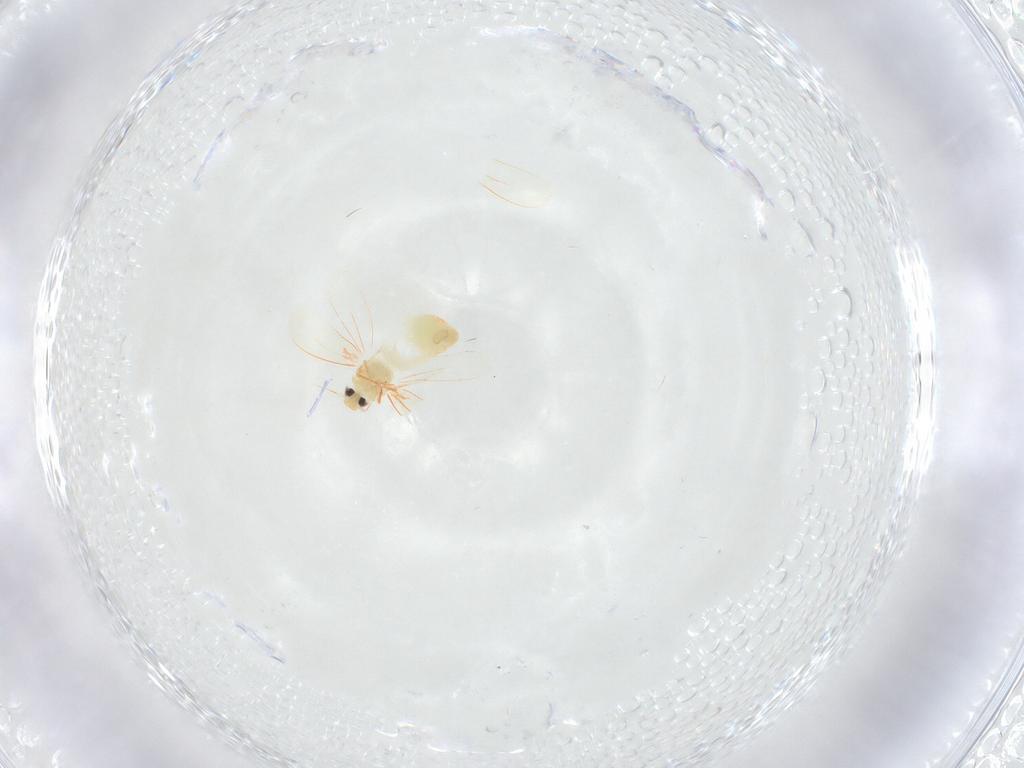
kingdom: Animalia
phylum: Arthropoda
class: Insecta
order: Hemiptera
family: Aleyrodidae
